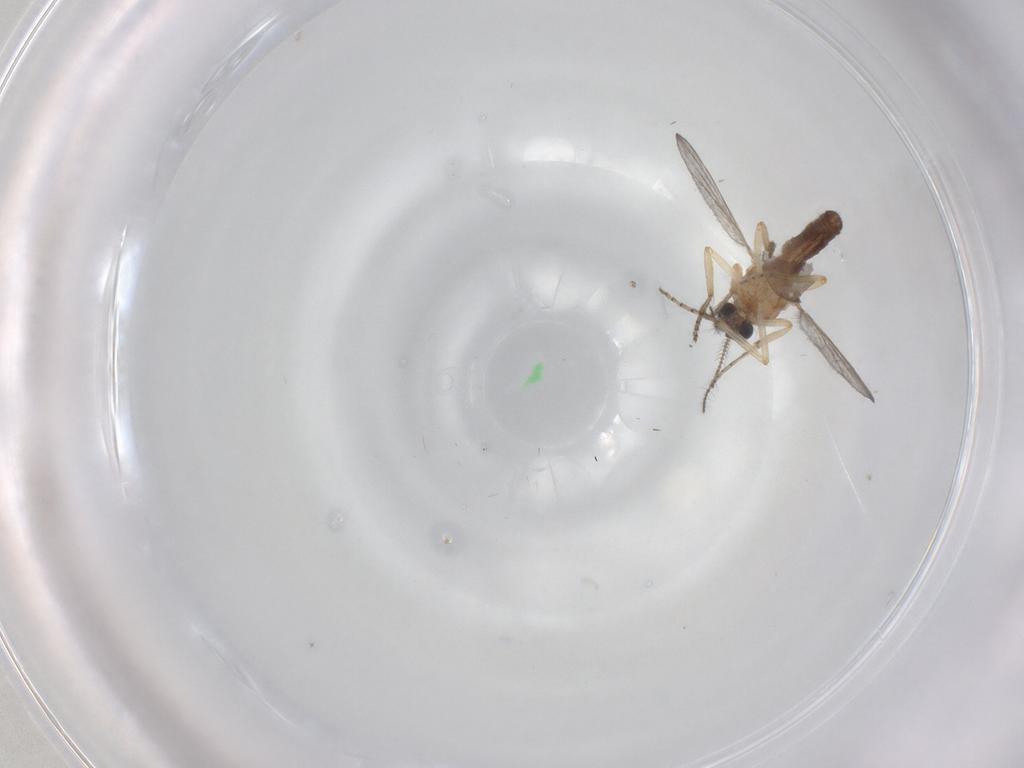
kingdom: Animalia
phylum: Arthropoda
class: Insecta
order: Diptera
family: Ceratopogonidae
